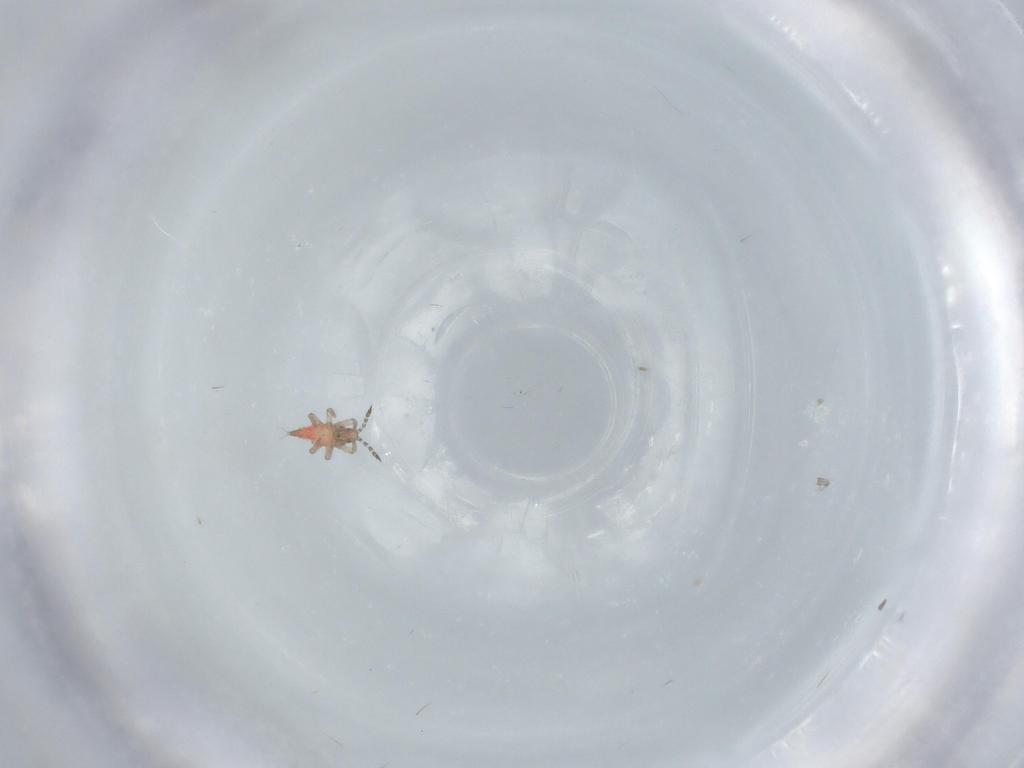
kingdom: Animalia
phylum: Arthropoda
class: Insecta
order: Thysanoptera
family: Phlaeothripidae
